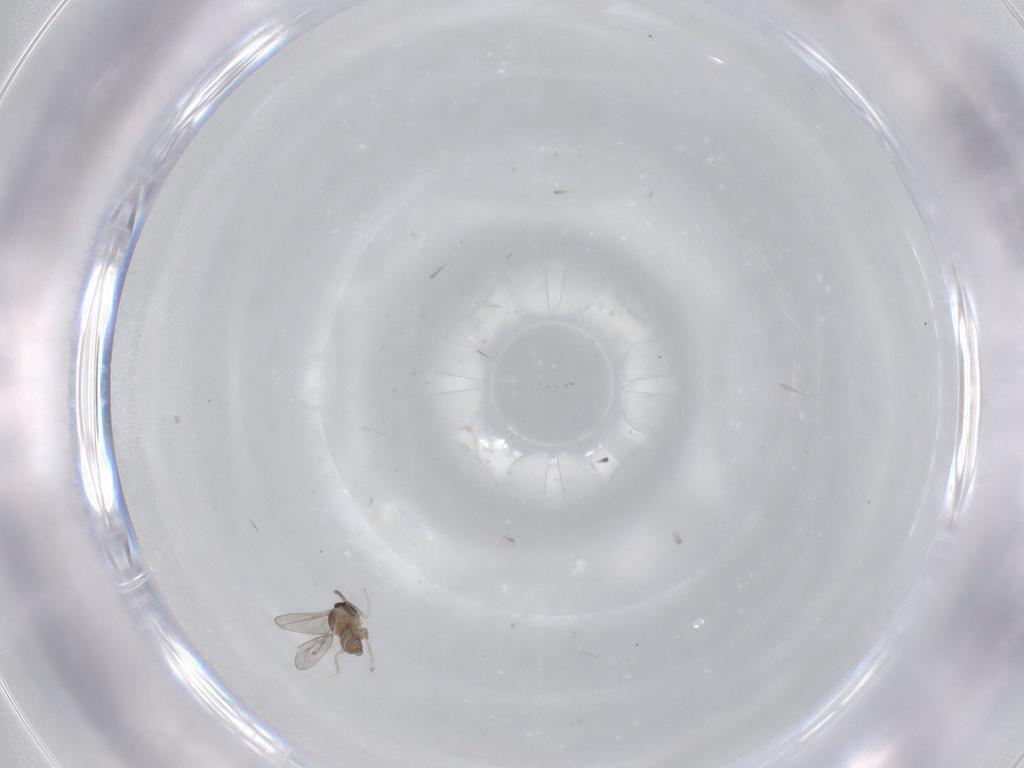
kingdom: Animalia
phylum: Arthropoda
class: Insecta
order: Diptera
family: Cecidomyiidae
